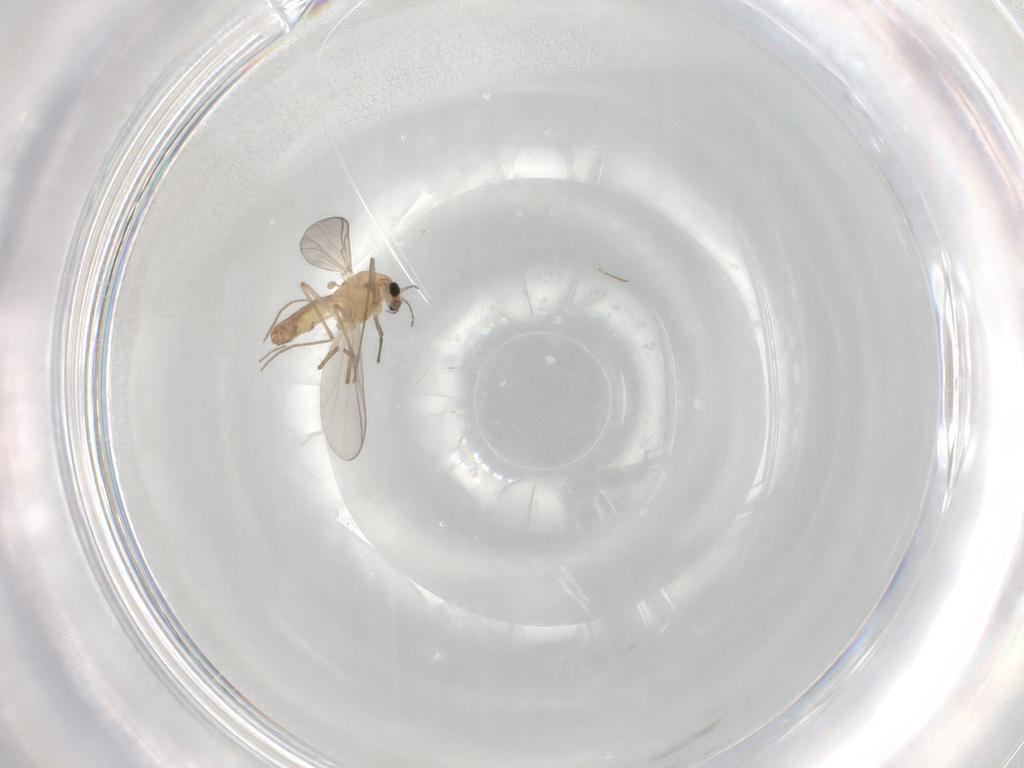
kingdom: Animalia
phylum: Arthropoda
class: Insecta
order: Diptera
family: Chironomidae
